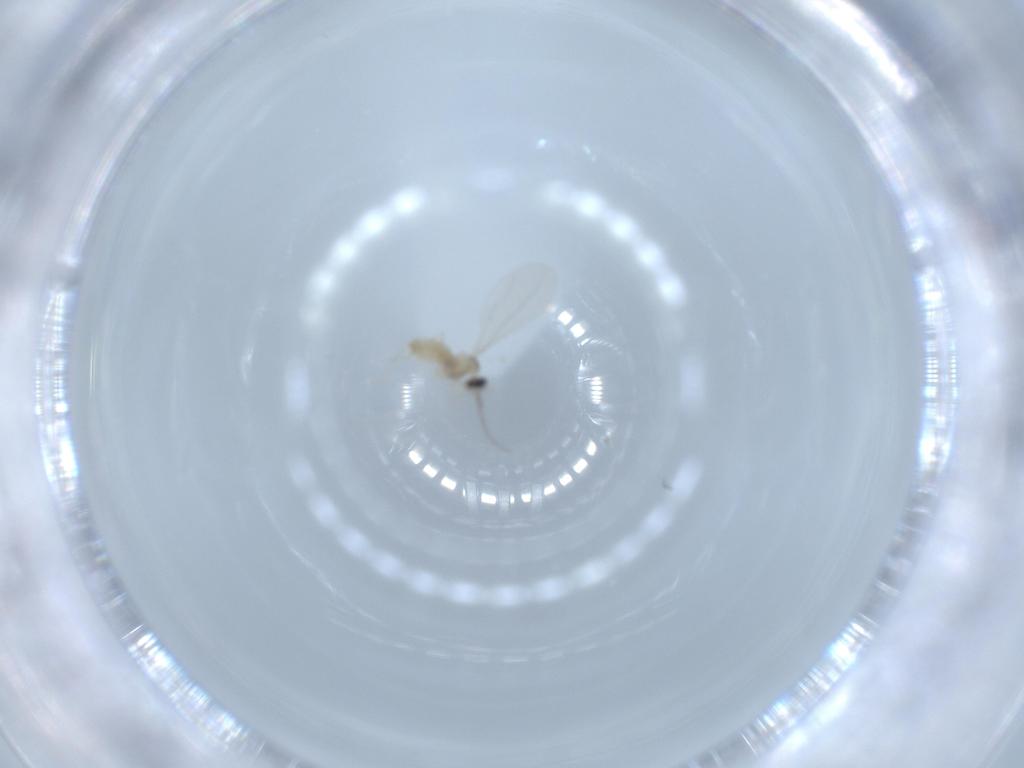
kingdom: Animalia
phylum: Arthropoda
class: Insecta
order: Diptera
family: Cecidomyiidae
